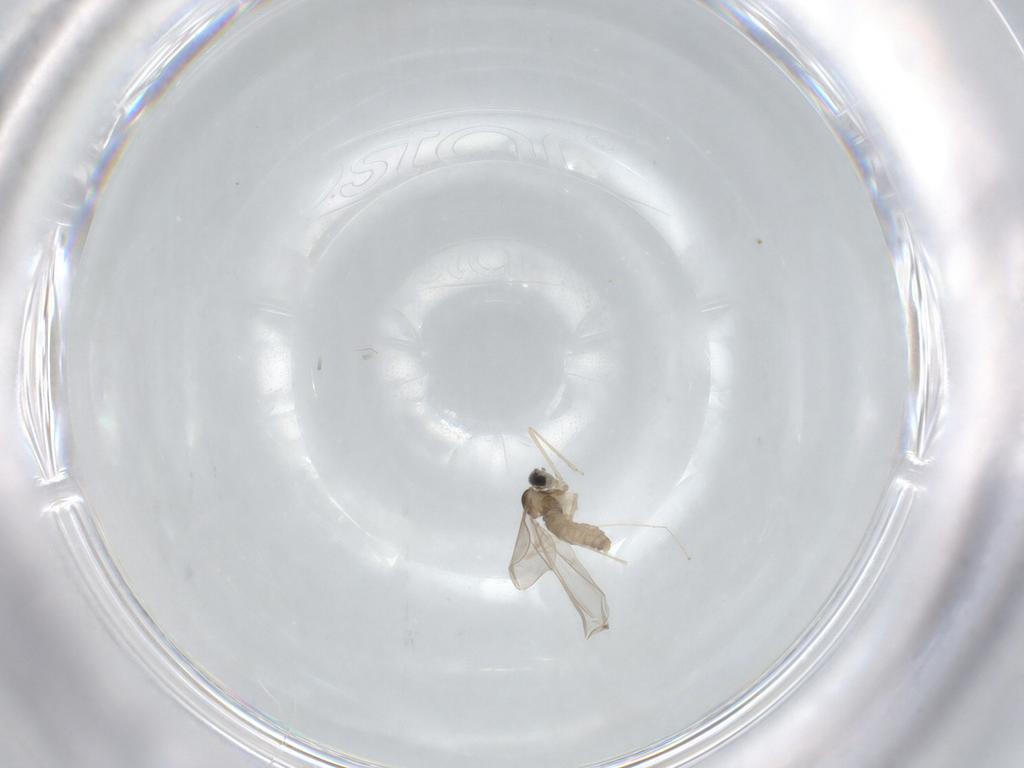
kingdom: Animalia
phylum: Arthropoda
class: Insecta
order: Diptera
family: Cecidomyiidae
